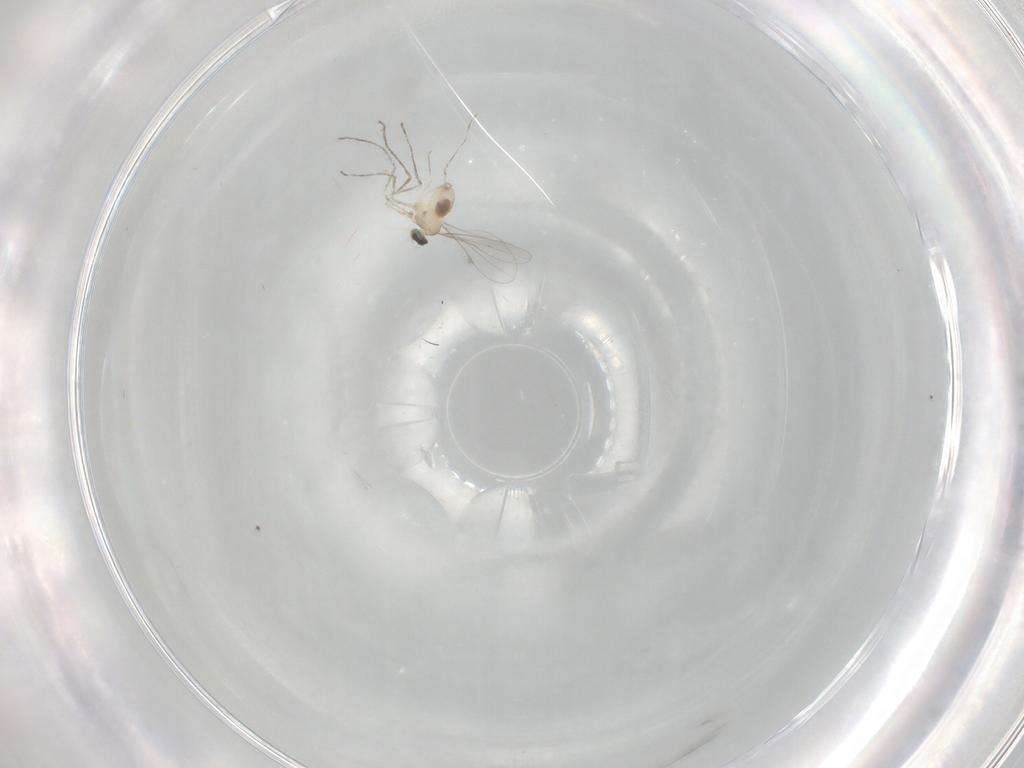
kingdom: Animalia
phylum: Arthropoda
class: Insecta
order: Diptera
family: Cecidomyiidae
